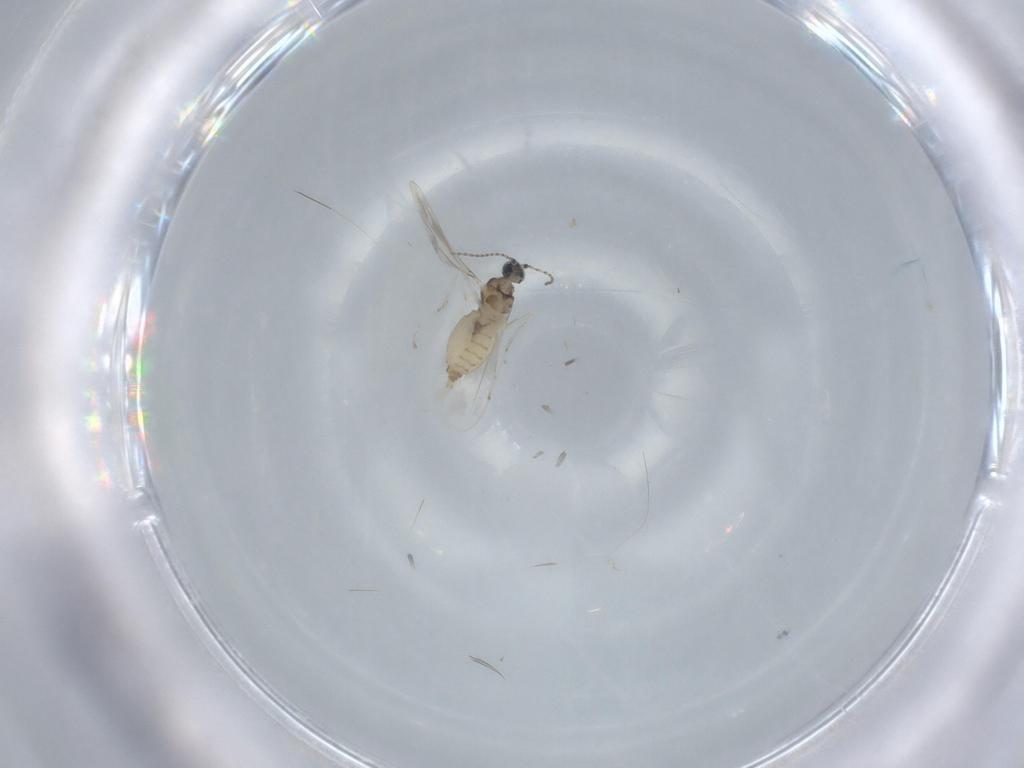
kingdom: Animalia
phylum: Arthropoda
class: Insecta
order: Diptera
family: Cecidomyiidae
